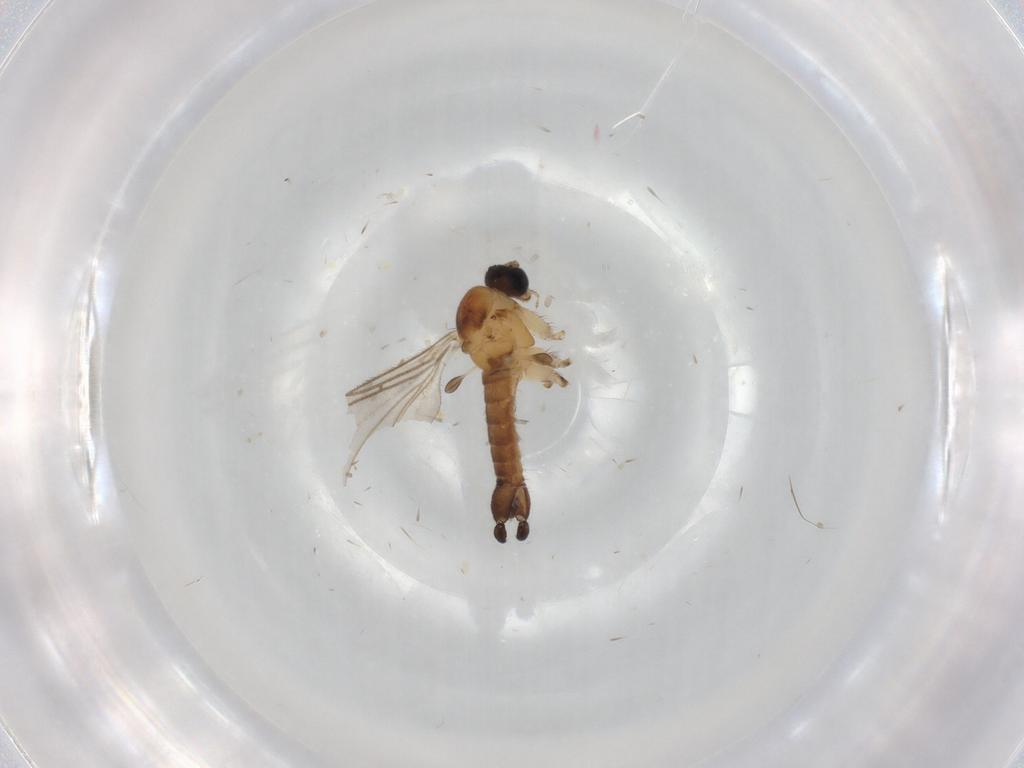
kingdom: Animalia
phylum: Arthropoda
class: Insecta
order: Diptera
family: Sciaridae
